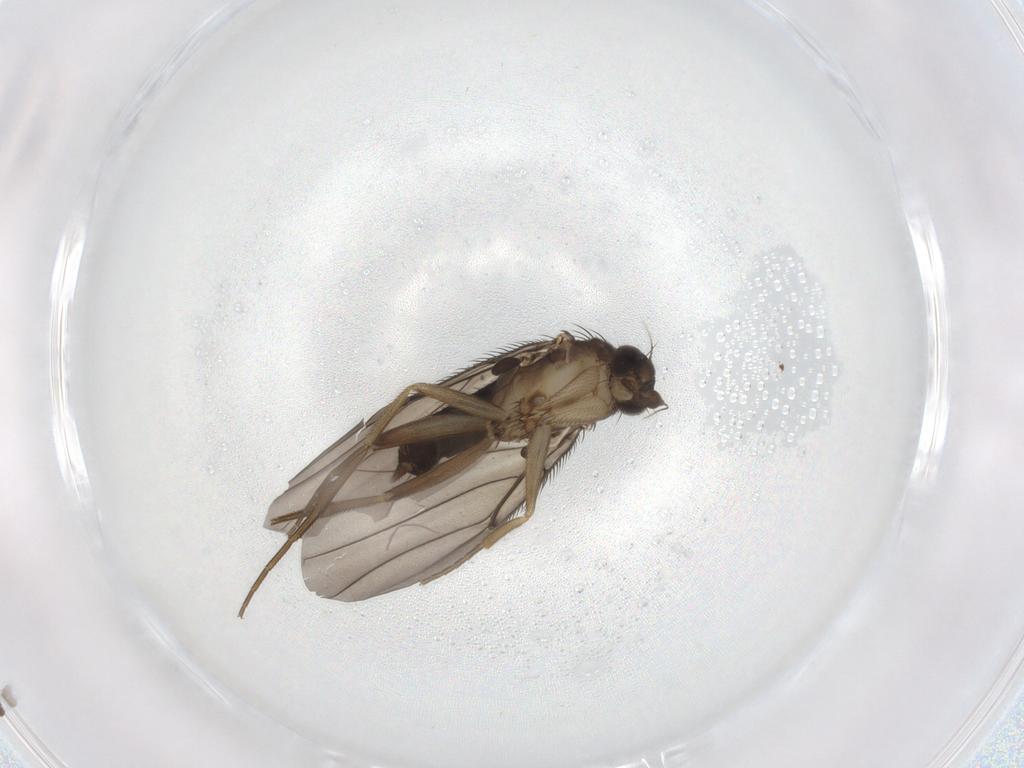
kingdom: Animalia
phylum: Arthropoda
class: Insecta
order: Diptera
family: Phoridae
